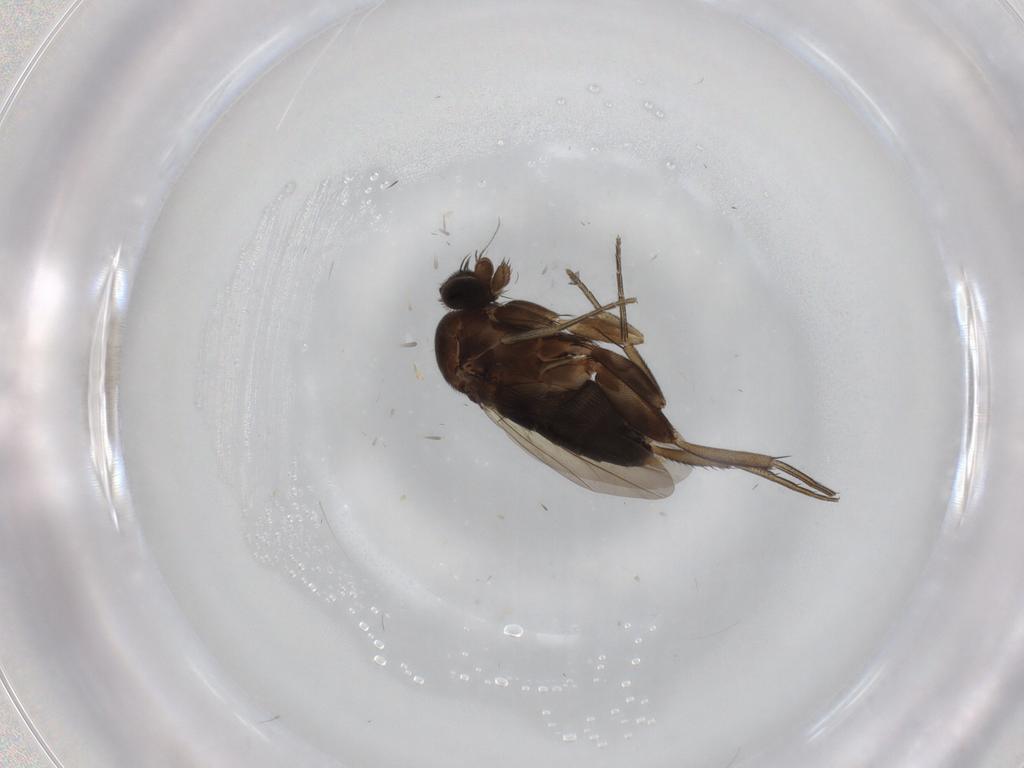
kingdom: Animalia
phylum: Arthropoda
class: Insecta
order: Diptera
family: Phoridae
